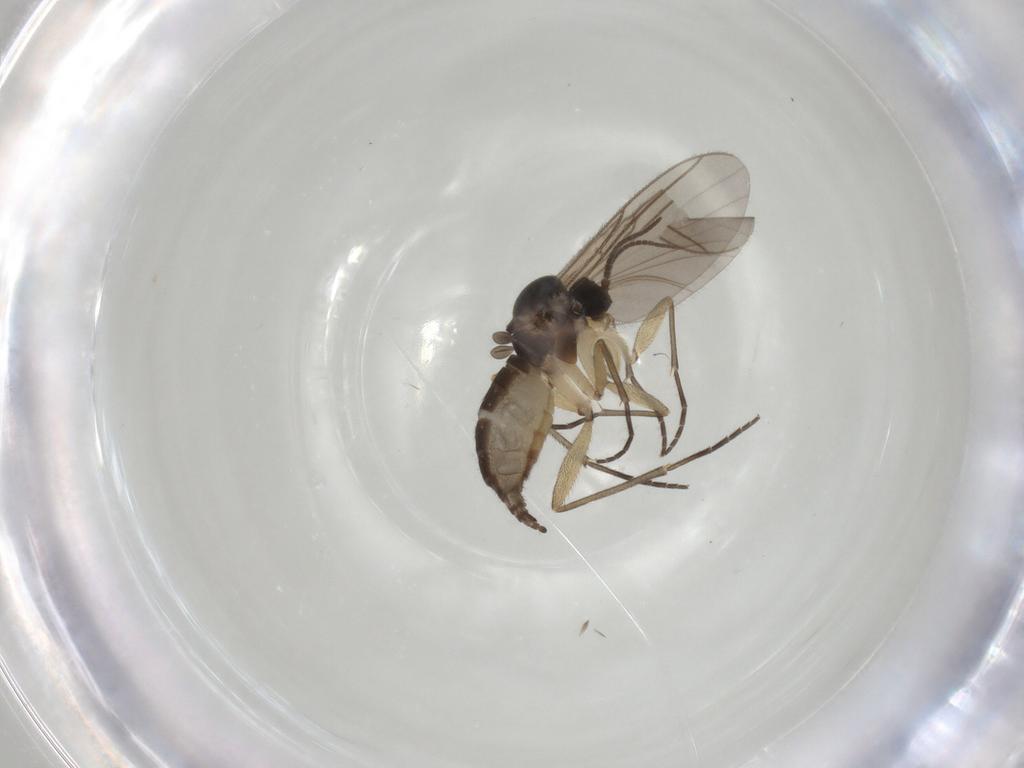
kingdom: Animalia
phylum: Arthropoda
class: Insecta
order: Diptera
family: Sciaridae
